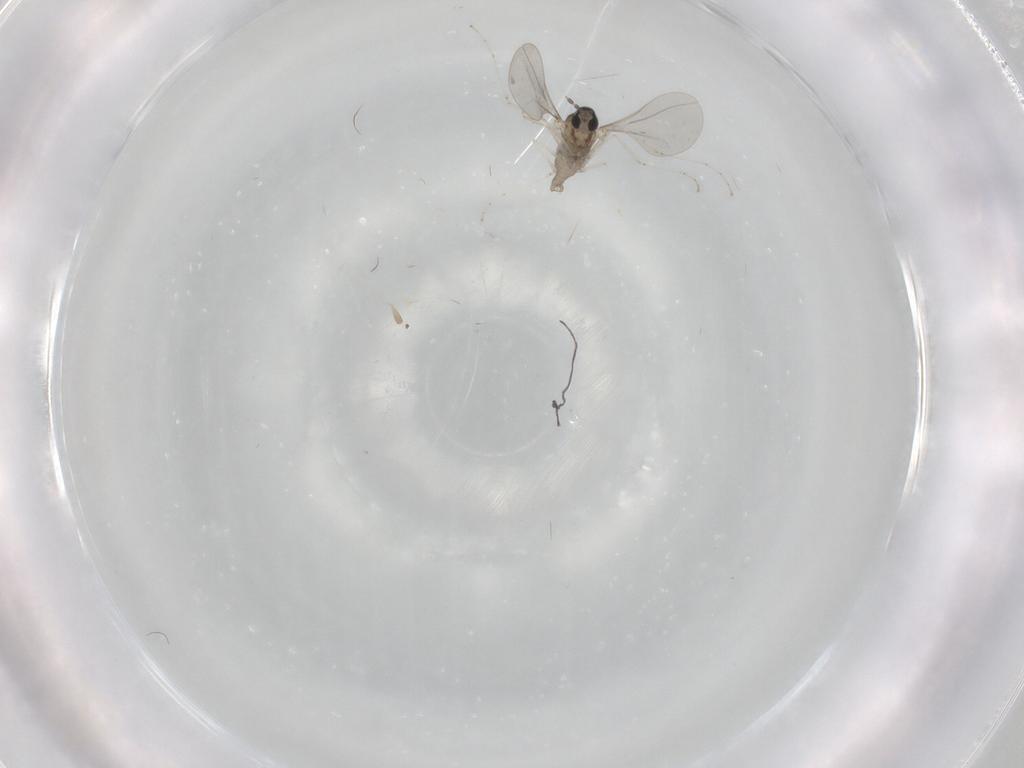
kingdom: Animalia
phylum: Arthropoda
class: Insecta
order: Diptera
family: Cecidomyiidae
